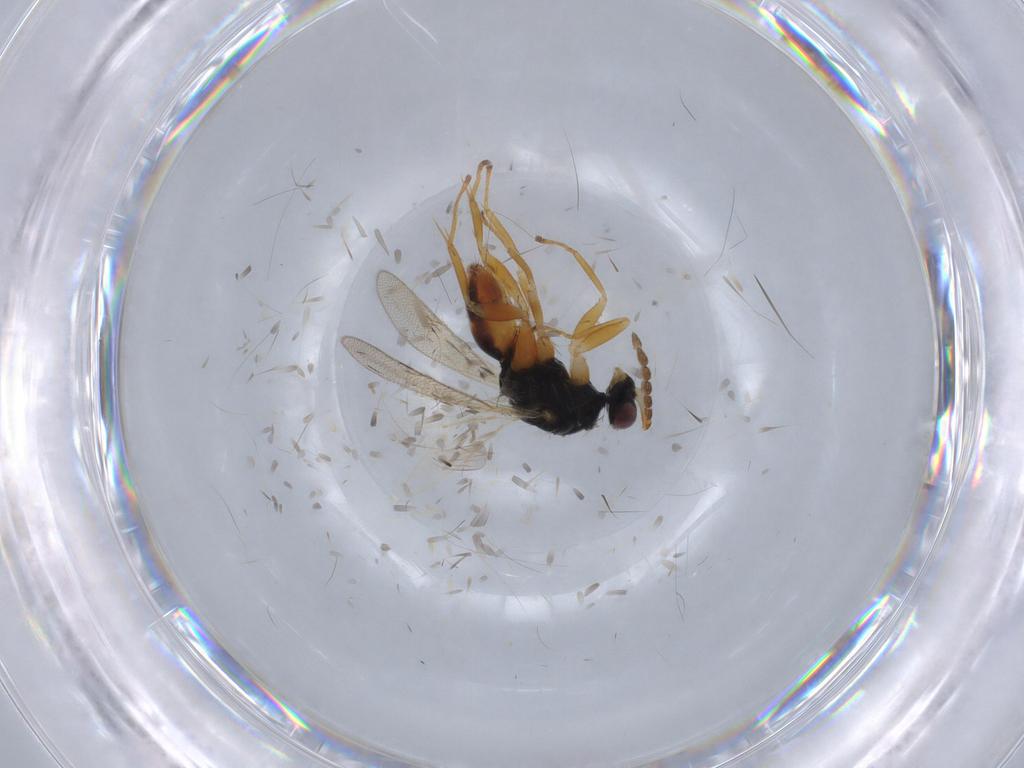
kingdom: Animalia
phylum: Arthropoda
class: Insecta
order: Hymenoptera
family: Eulophidae
